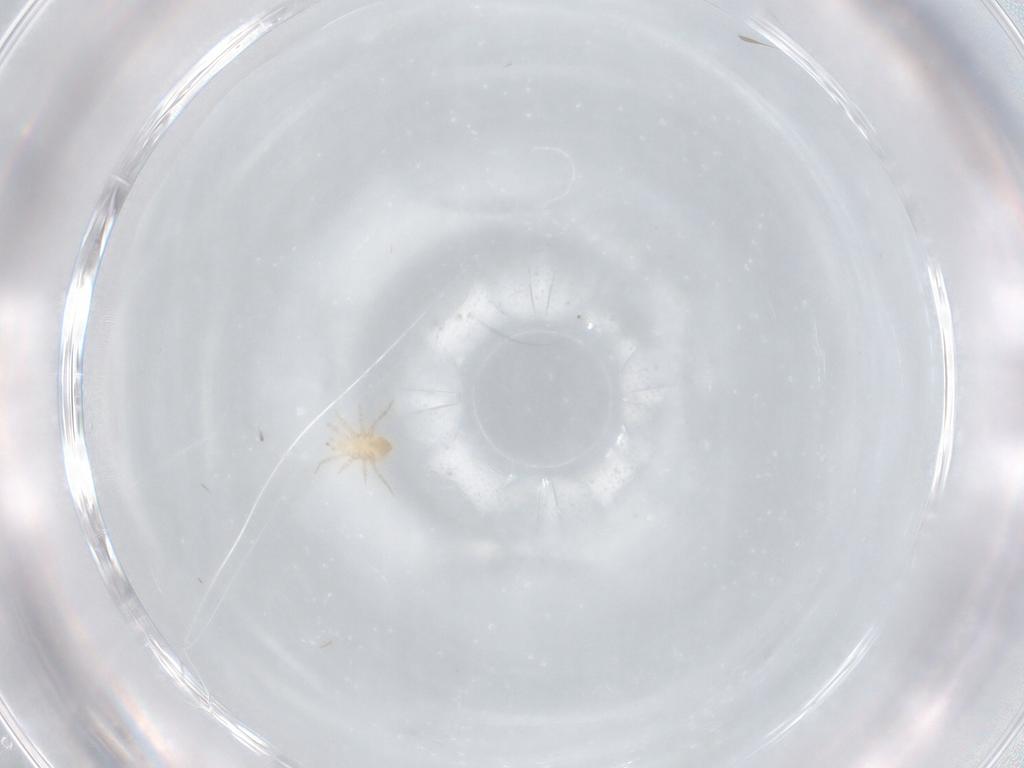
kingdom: Animalia
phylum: Arthropoda
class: Arachnida
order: Mesostigmata
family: Blattisociidae
